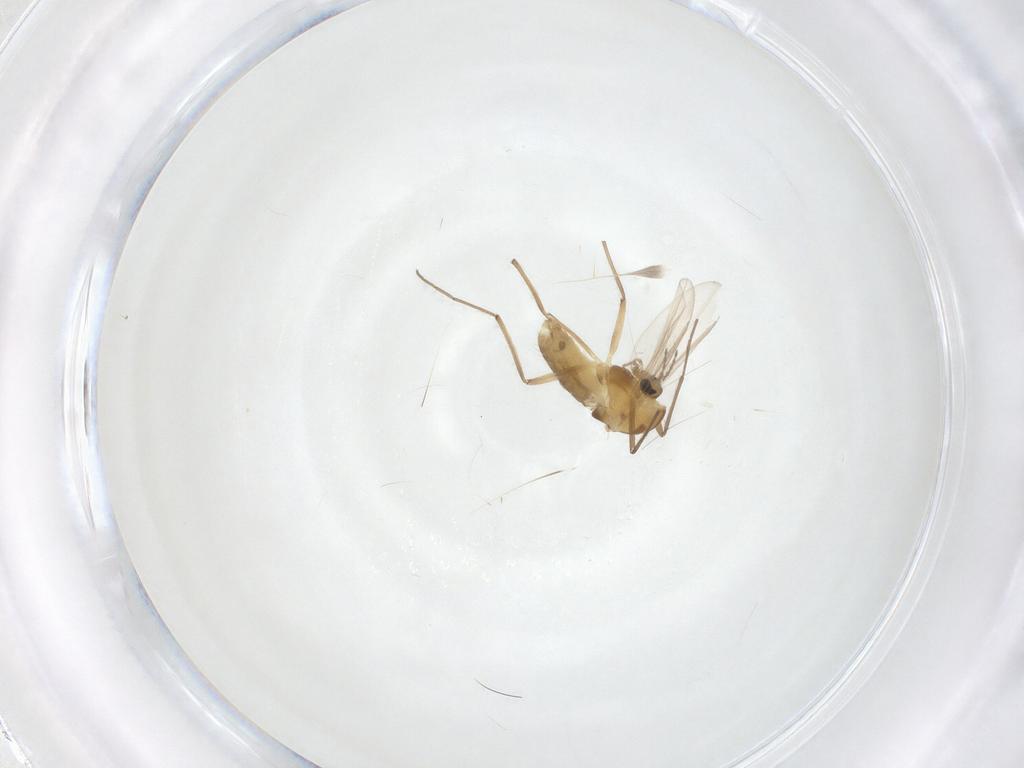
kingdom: Animalia
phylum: Arthropoda
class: Insecta
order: Diptera
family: Chironomidae
